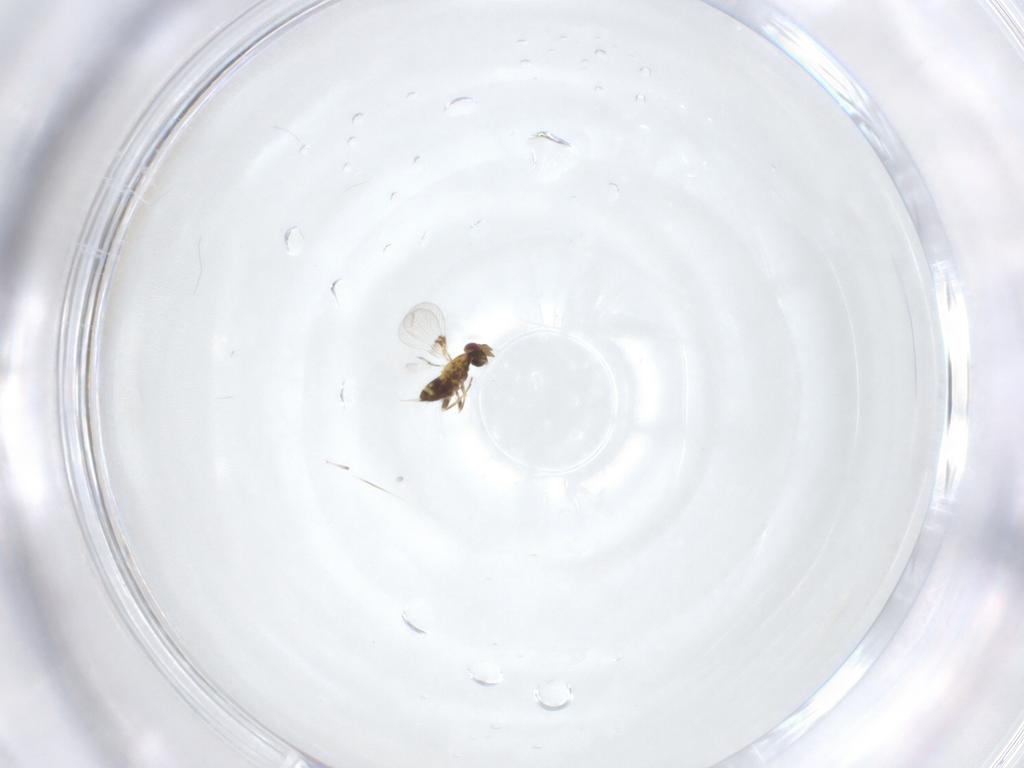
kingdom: Animalia
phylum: Arthropoda
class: Insecta
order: Hymenoptera
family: Trichogrammatidae
